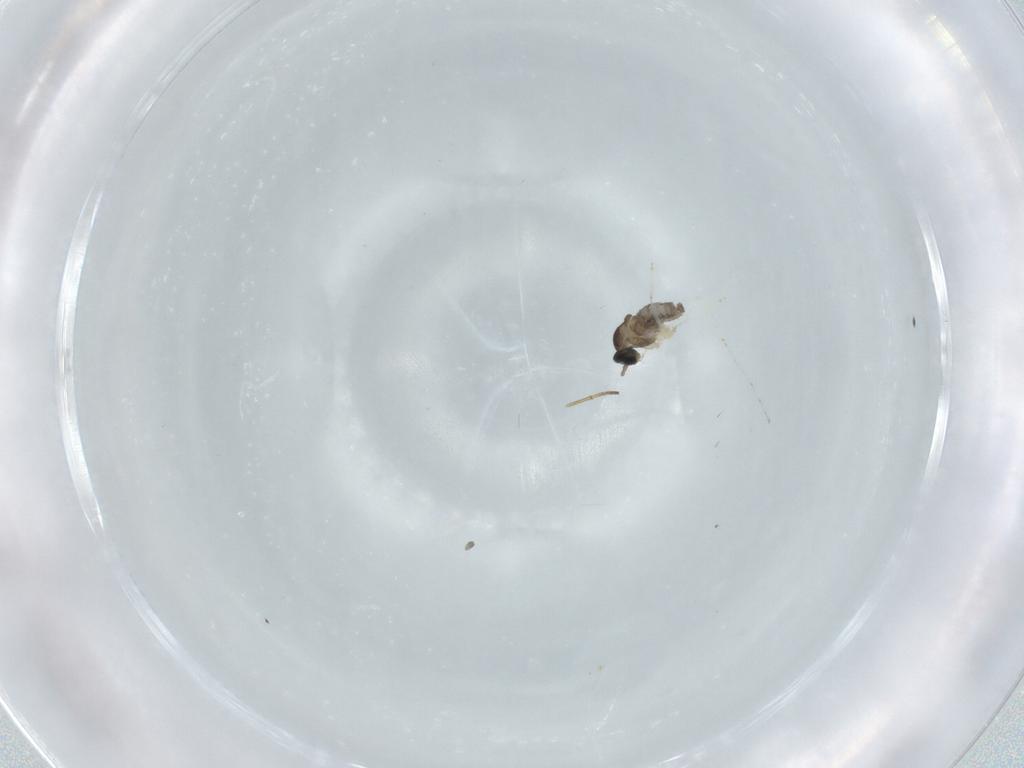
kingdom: Animalia
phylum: Arthropoda
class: Insecta
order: Diptera
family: Cecidomyiidae
